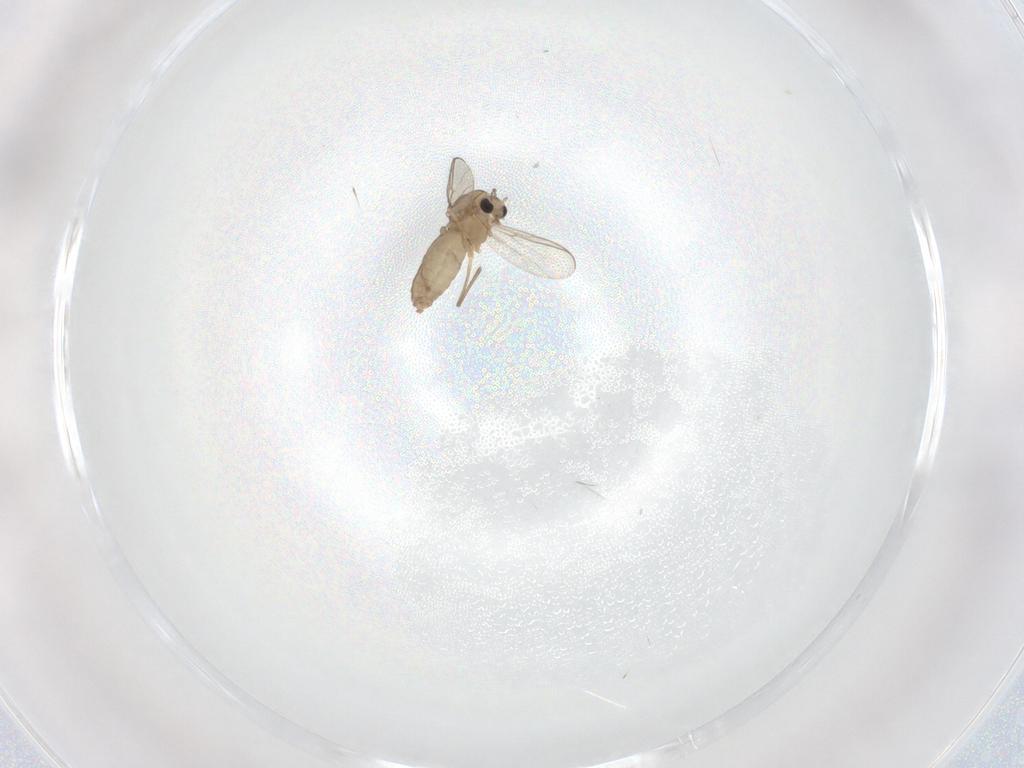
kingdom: Animalia
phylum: Arthropoda
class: Insecta
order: Diptera
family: Chironomidae
